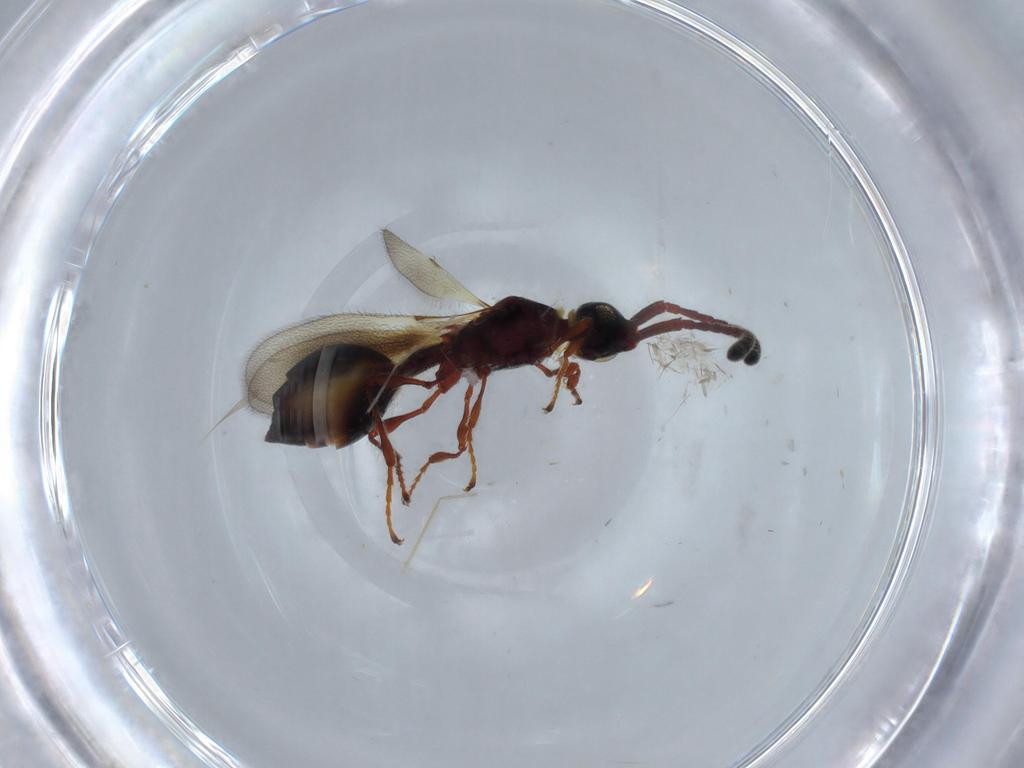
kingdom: Animalia
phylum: Arthropoda
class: Insecta
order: Hymenoptera
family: Diapriidae
